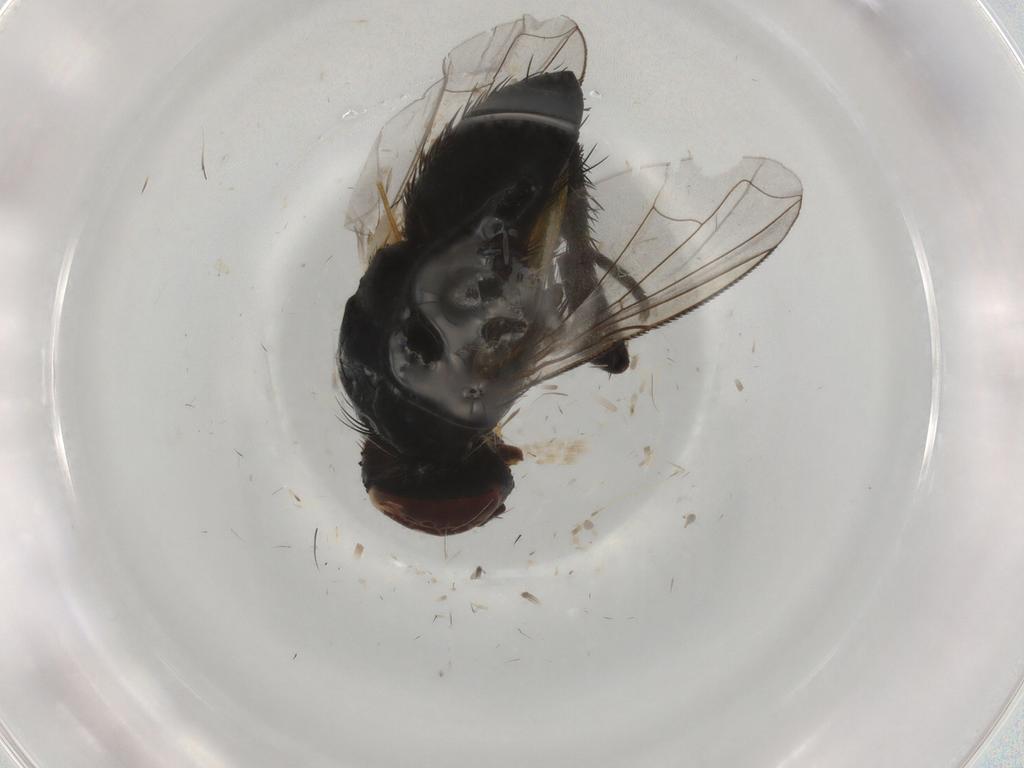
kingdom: Animalia
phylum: Arthropoda
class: Insecta
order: Diptera
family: Tachinidae
